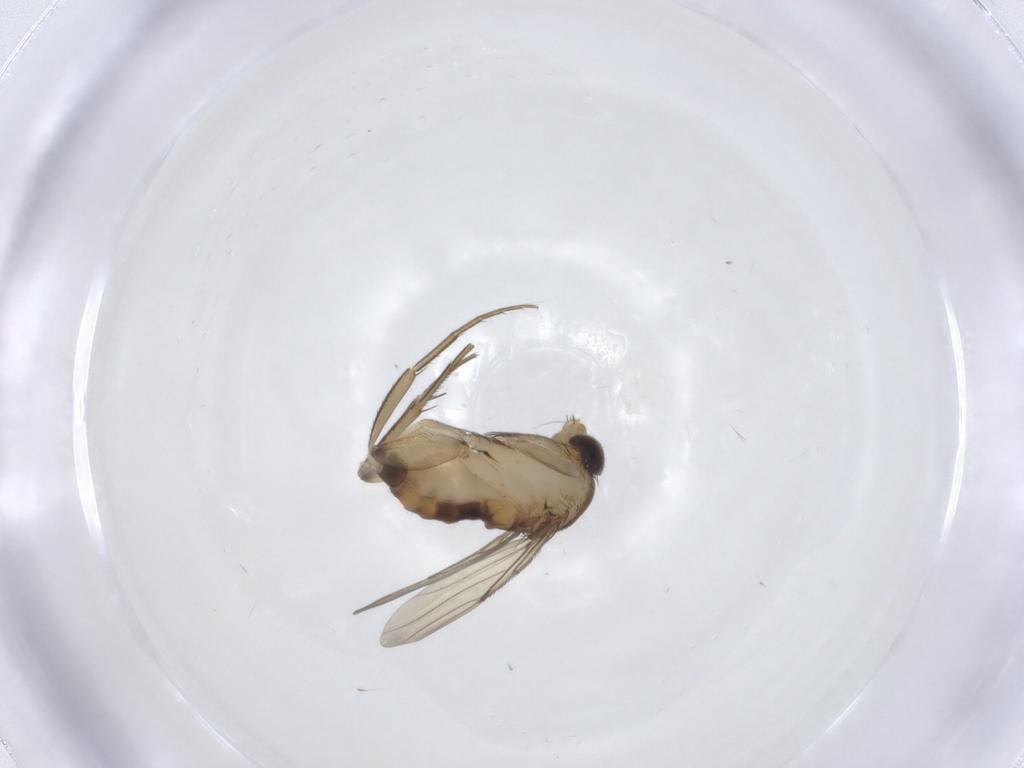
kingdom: Animalia
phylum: Arthropoda
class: Insecta
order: Diptera
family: Phoridae
